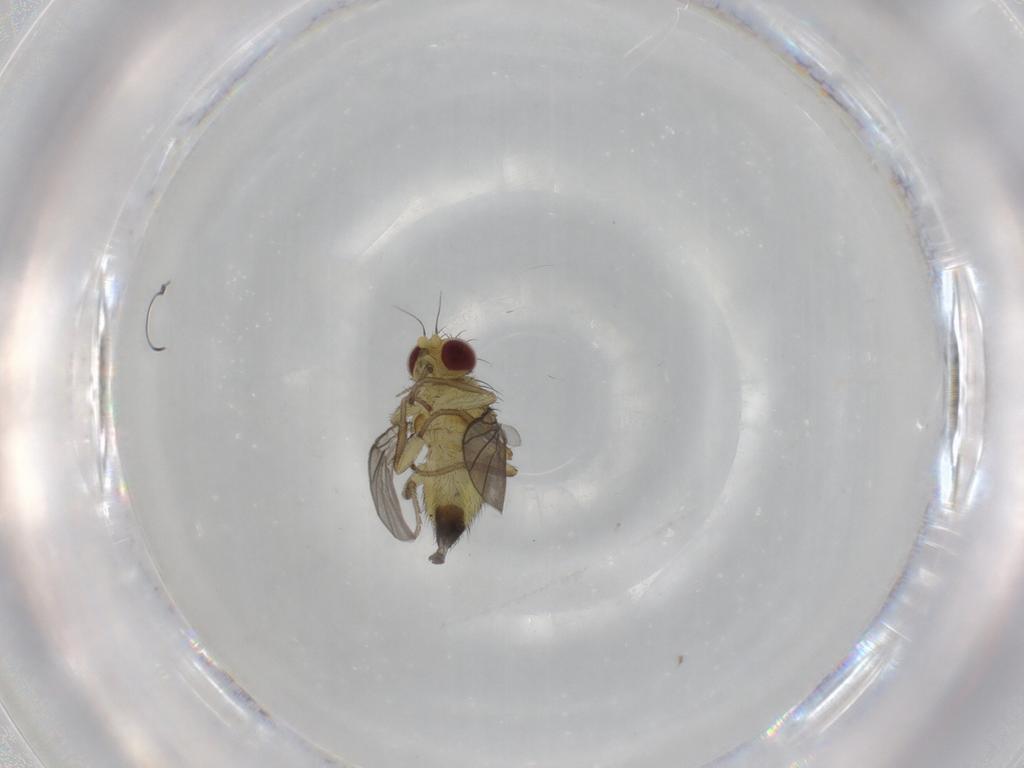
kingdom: Animalia
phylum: Arthropoda
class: Insecta
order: Diptera
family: Agromyzidae
